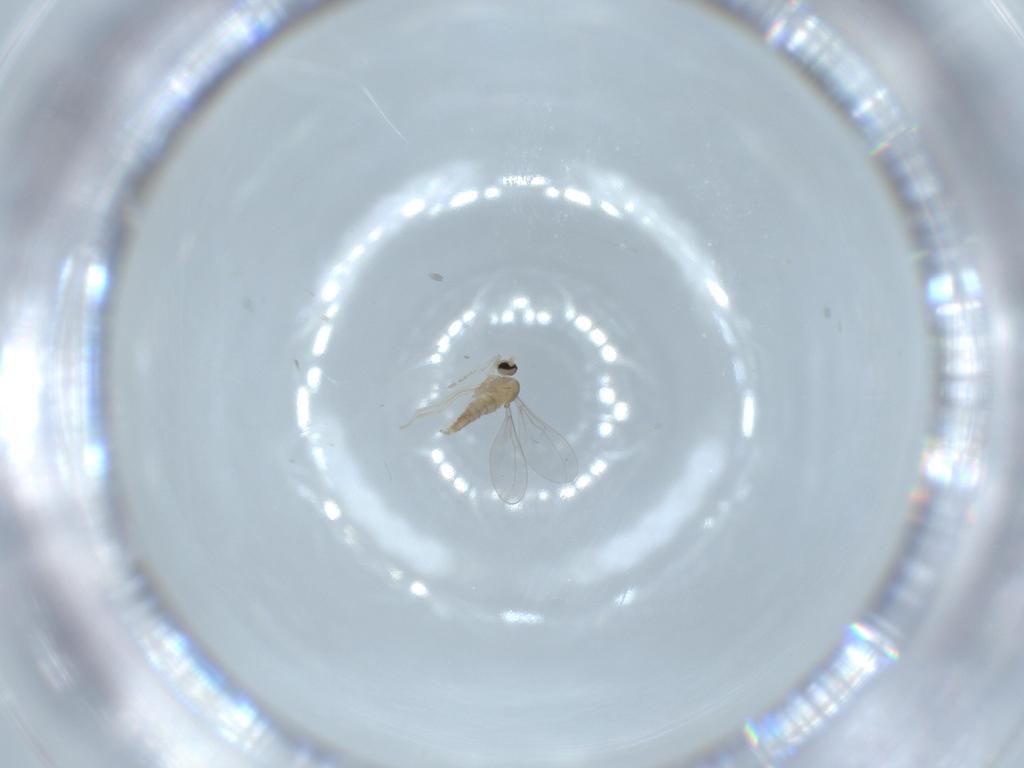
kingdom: Animalia
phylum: Arthropoda
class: Insecta
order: Diptera
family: Cecidomyiidae
